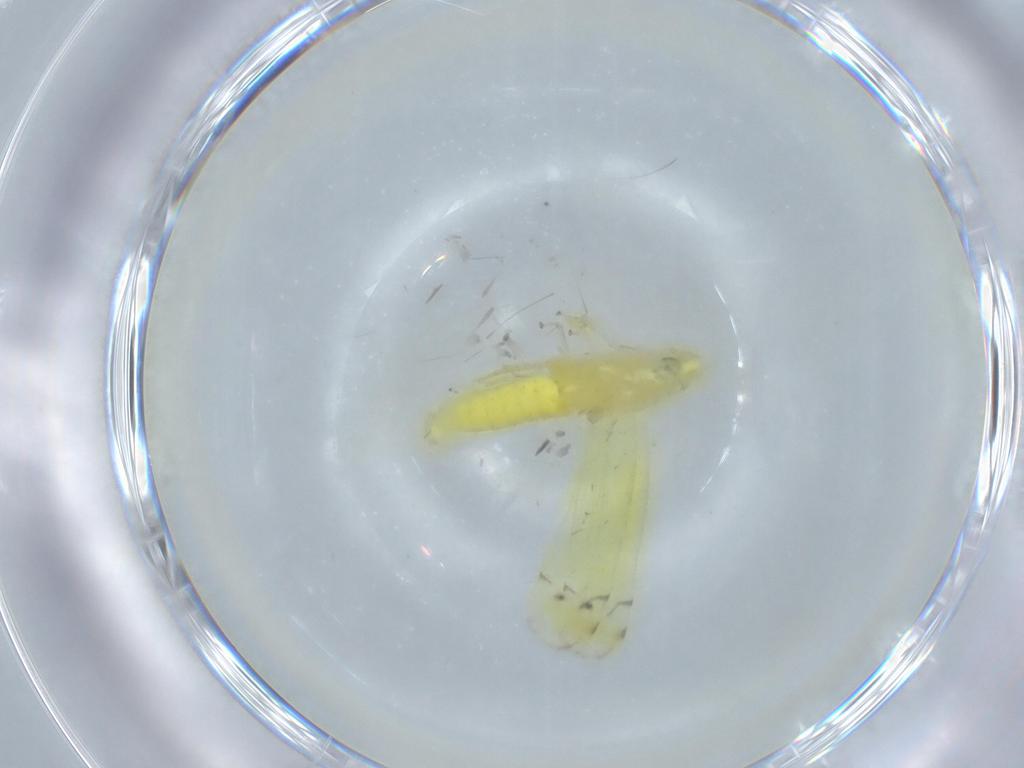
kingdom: Animalia
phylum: Arthropoda
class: Insecta
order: Hemiptera
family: Cicadellidae
